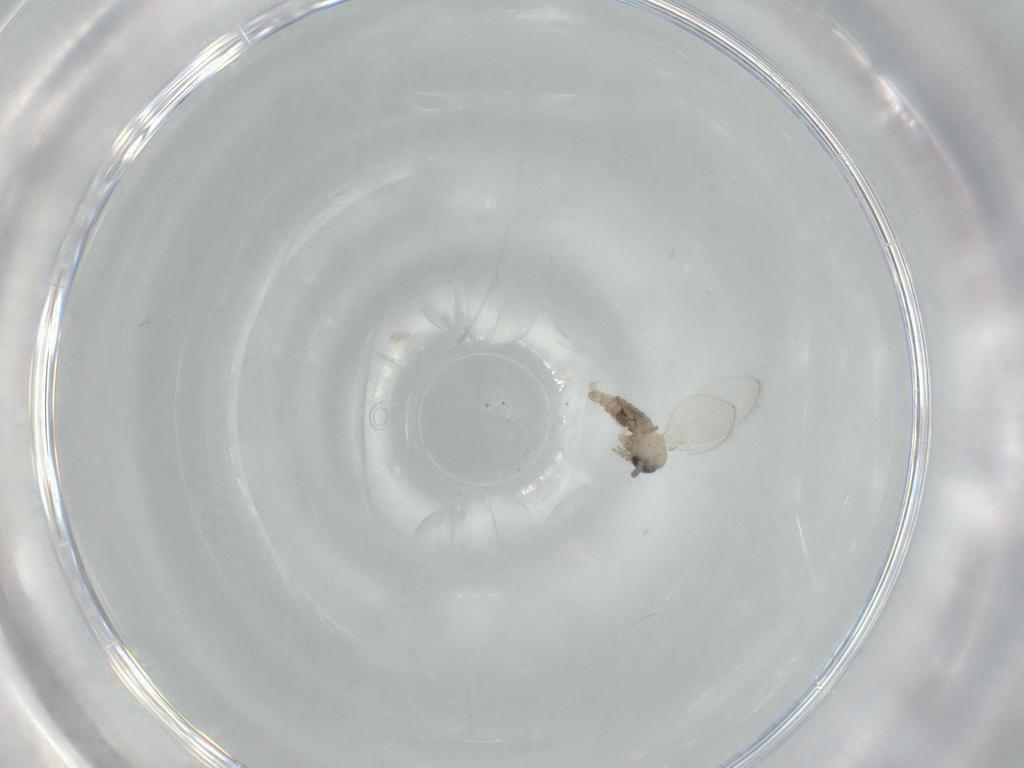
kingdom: Animalia
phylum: Arthropoda
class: Insecta
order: Diptera
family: Psychodidae
